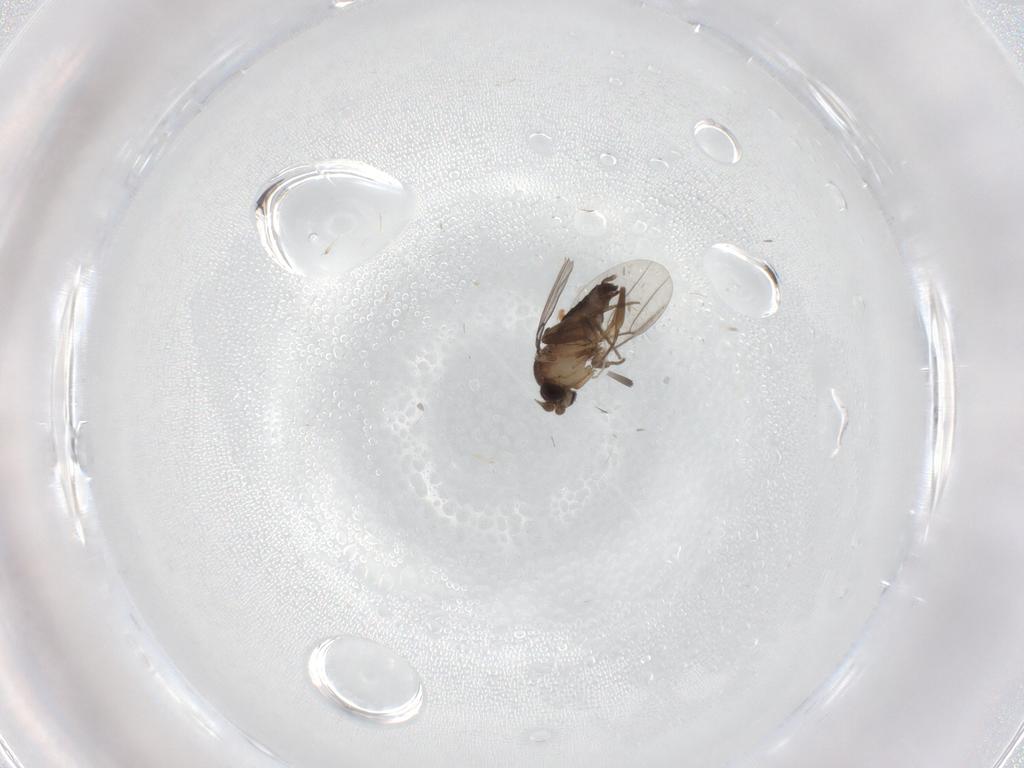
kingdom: Animalia
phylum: Arthropoda
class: Insecta
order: Diptera
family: Phoridae
